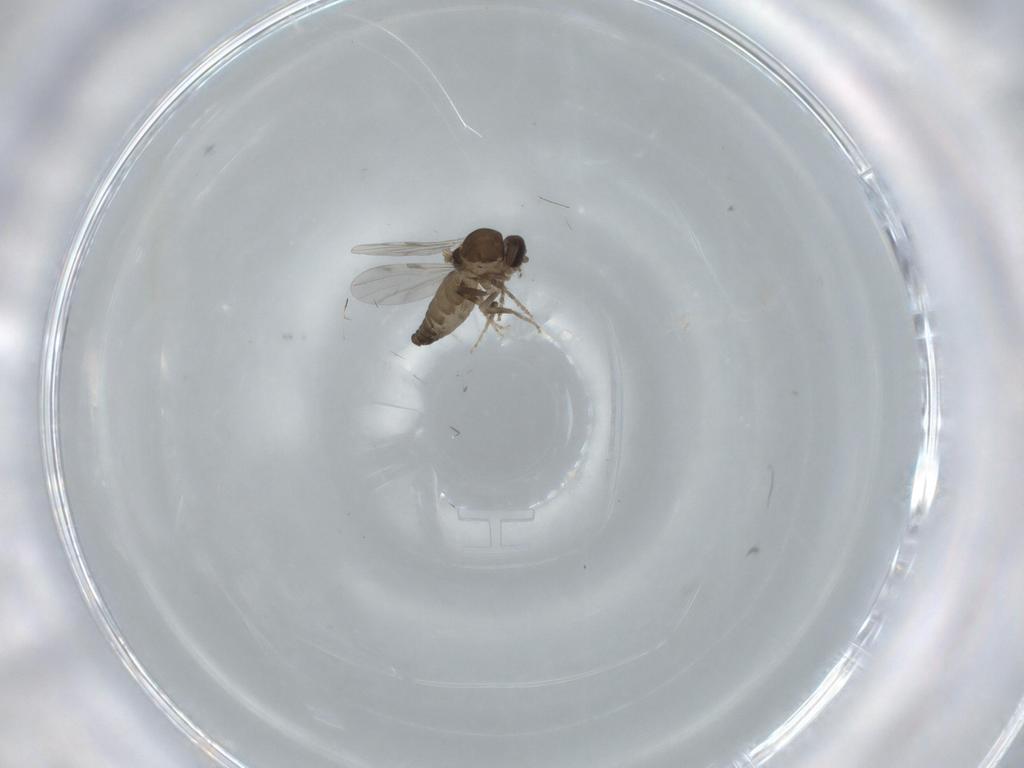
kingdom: Animalia
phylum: Arthropoda
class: Insecta
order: Diptera
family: Ceratopogonidae
